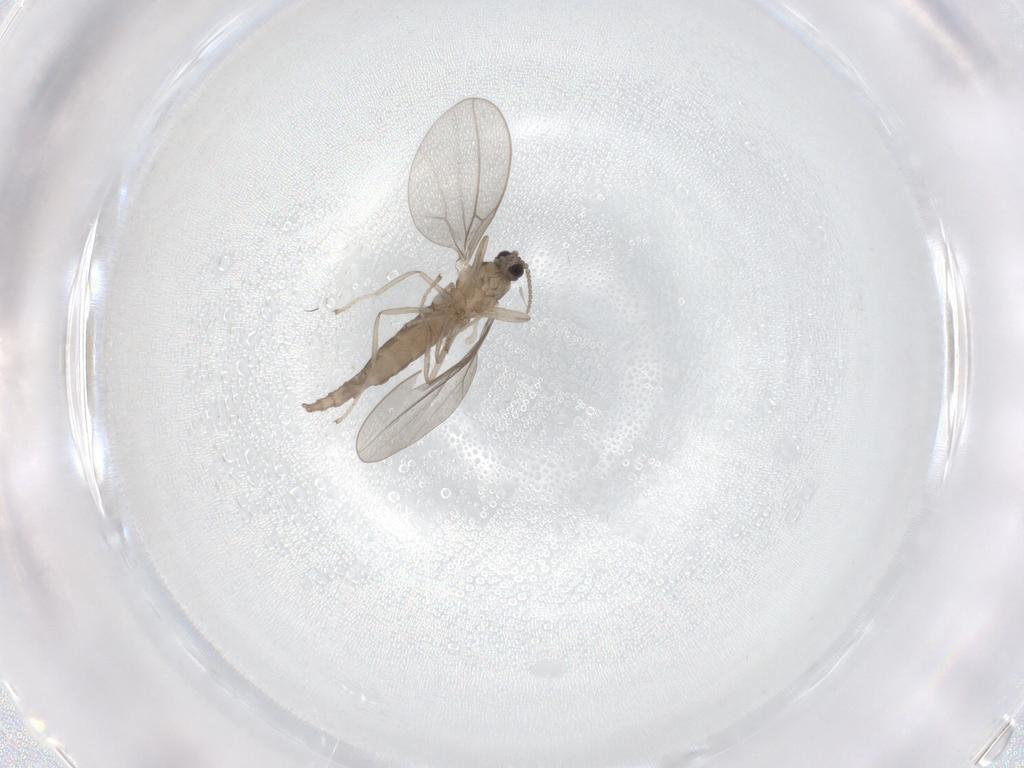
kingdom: Animalia
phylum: Arthropoda
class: Insecta
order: Diptera
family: Cecidomyiidae
